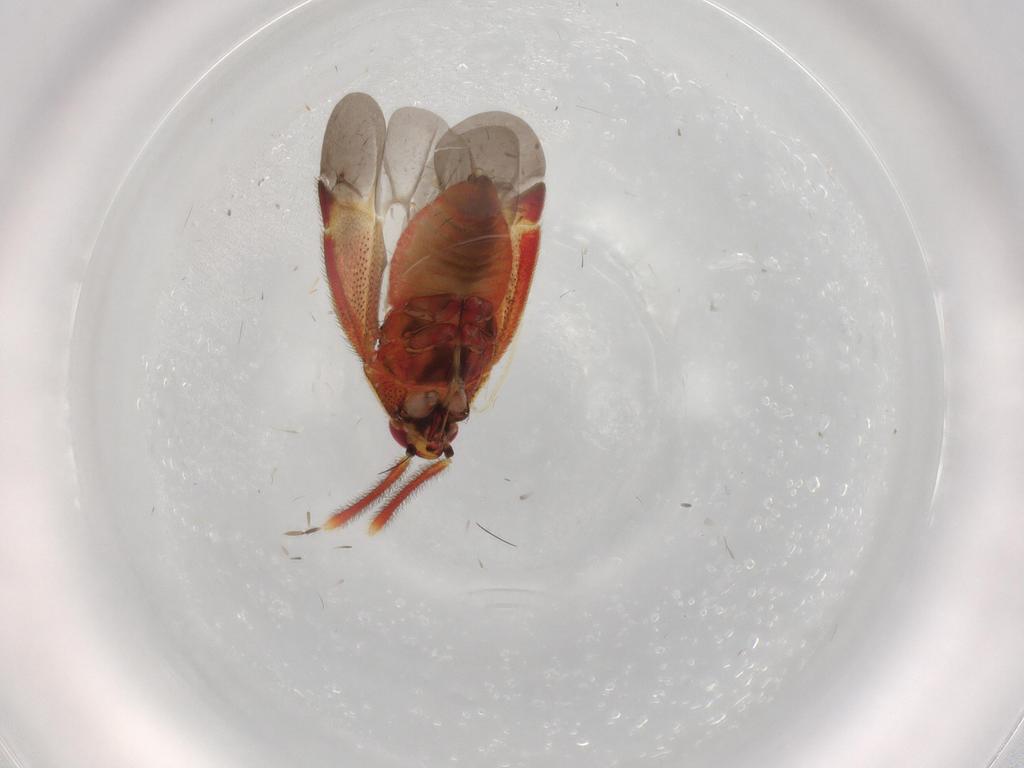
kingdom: Animalia
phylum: Arthropoda
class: Insecta
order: Hemiptera
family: Miridae
